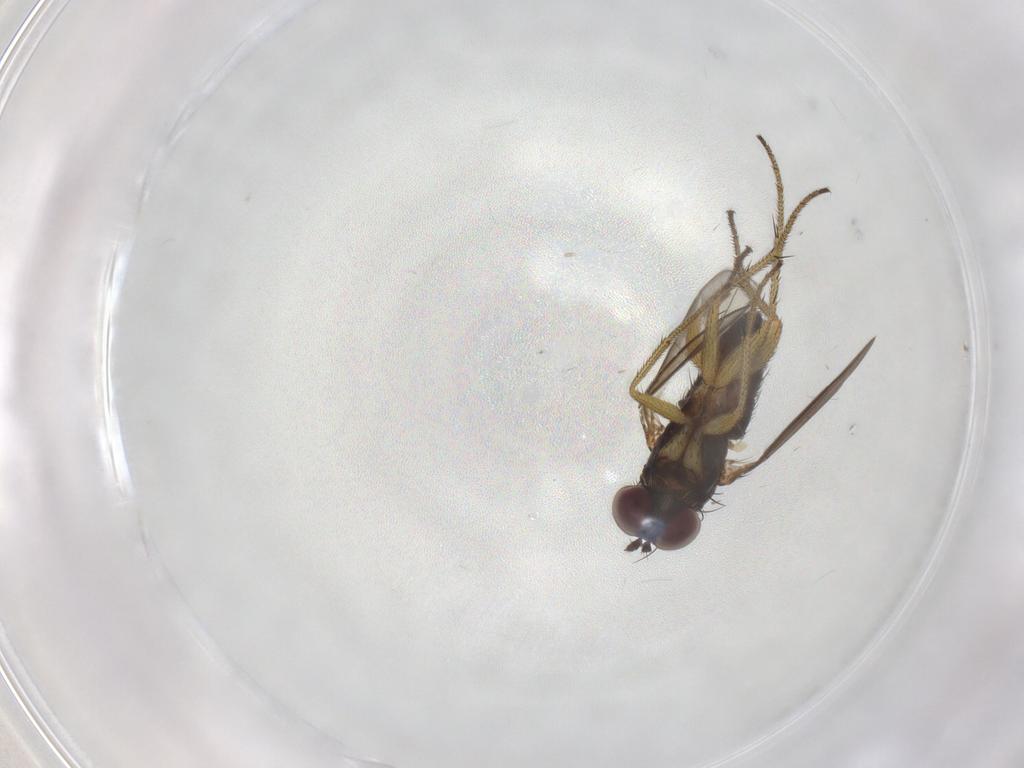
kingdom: Animalia
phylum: Arthropoda
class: Insecta
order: Diptera
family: Dolichopodidae
